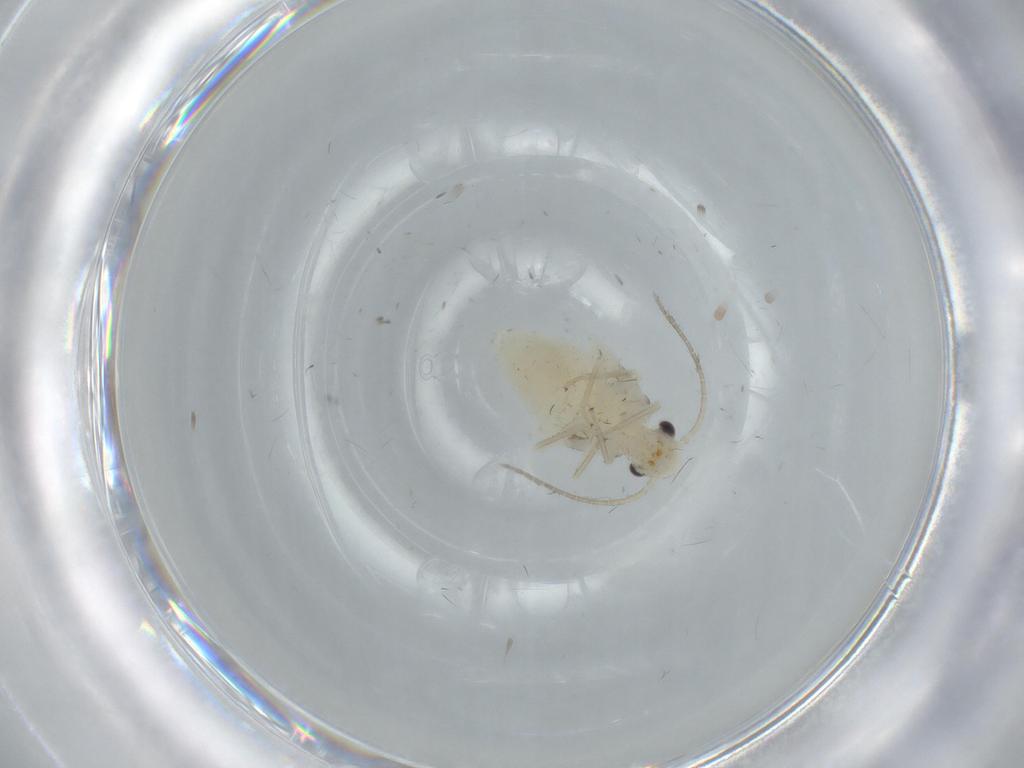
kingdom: Animalia
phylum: Arthropoda
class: Insecta
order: Psocodea
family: Caeciliusidae
